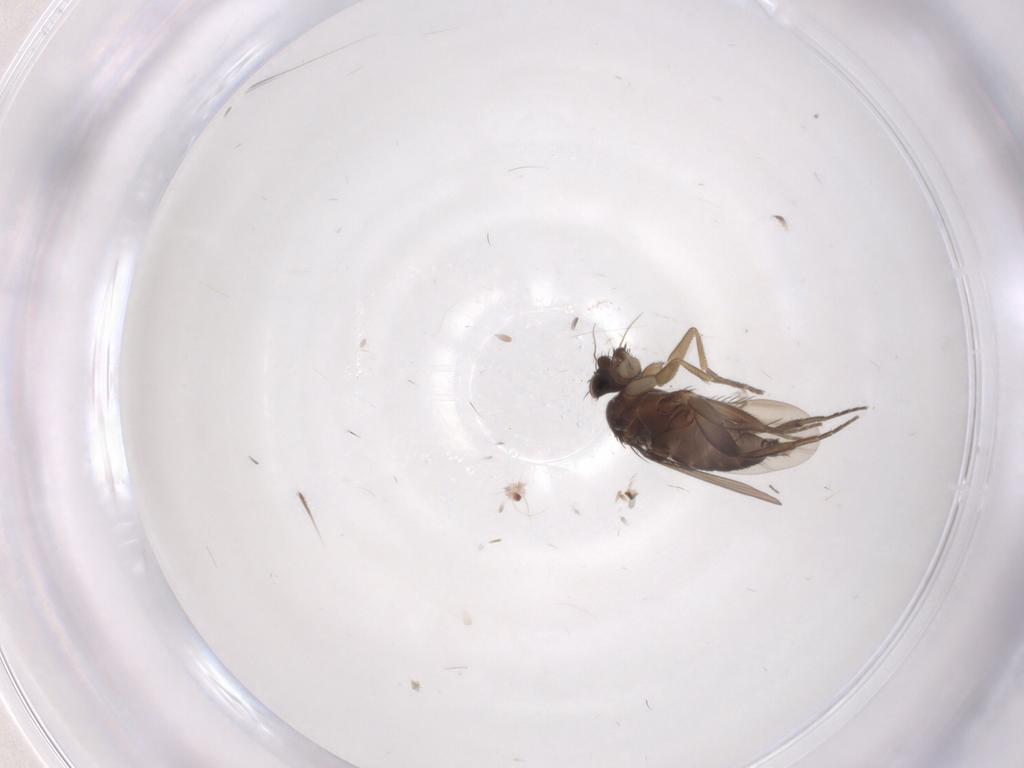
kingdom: Animalia
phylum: Arthropoda
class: Insecta
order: Diptera
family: Phoridae
